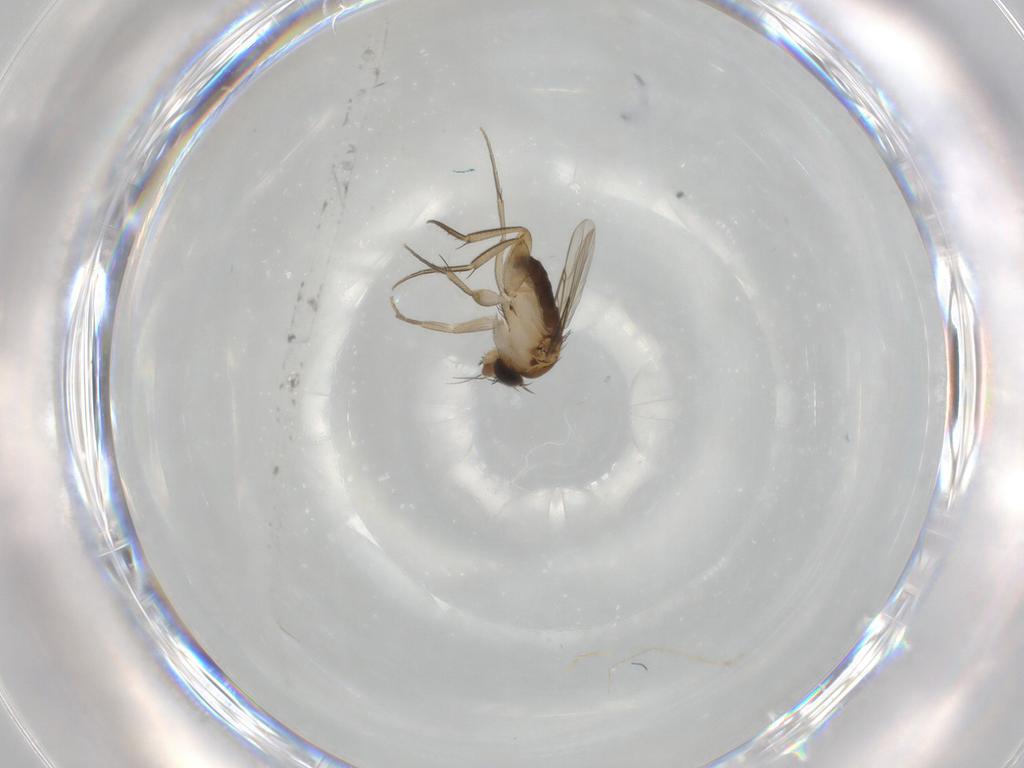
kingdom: Animalia
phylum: Arthropoda
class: Insecta
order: Diptera
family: Phoridae
